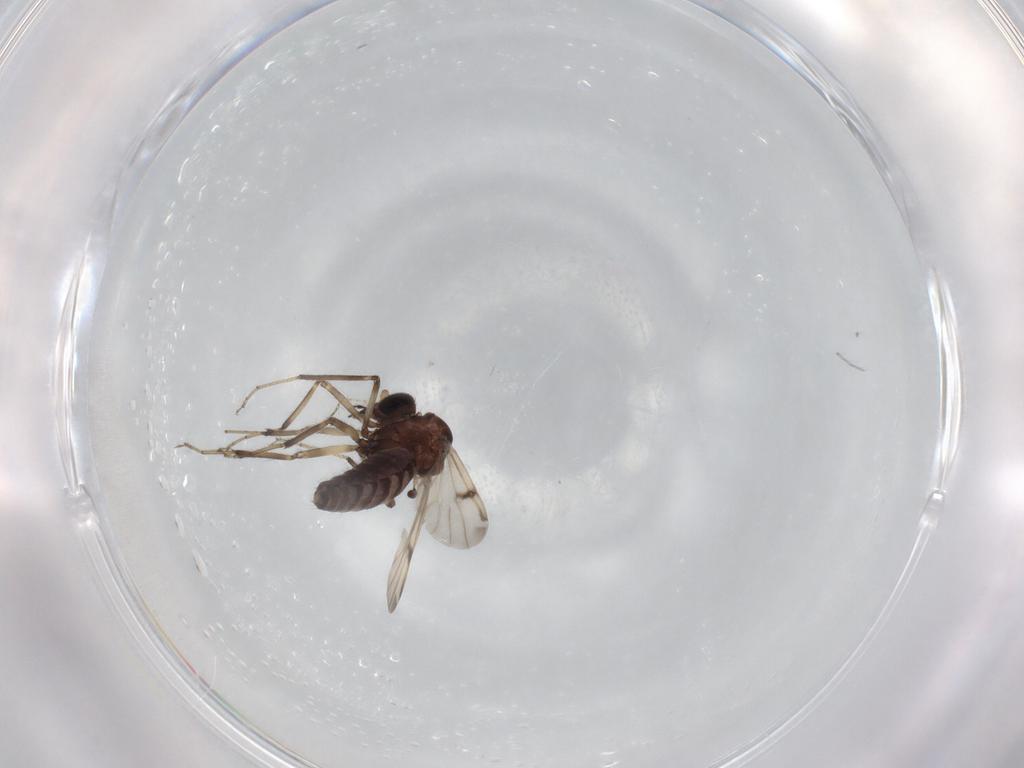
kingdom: Animalia
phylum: Arthropoda
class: Insecta
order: Diptera
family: Ceratopogonidae
